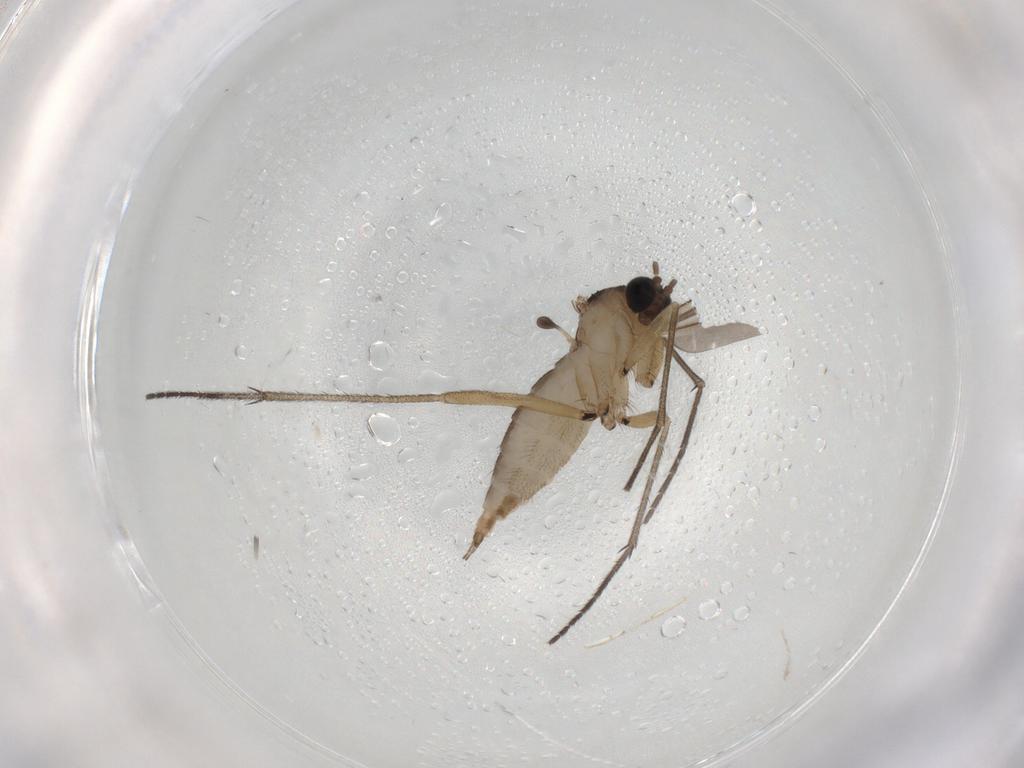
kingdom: Animalia
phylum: Arthropoda
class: Insecta
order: Diptera
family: Sciaridae
